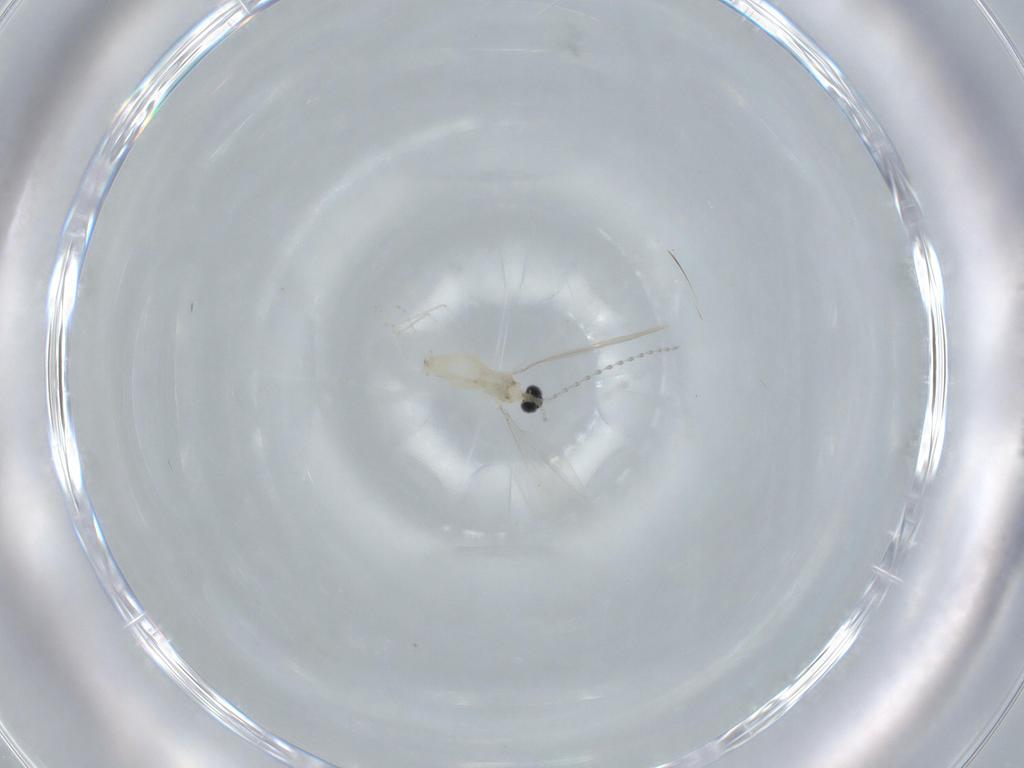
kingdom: Animalia
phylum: Arthropoda
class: Insecta
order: Diptera
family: Cecidomyiidae
